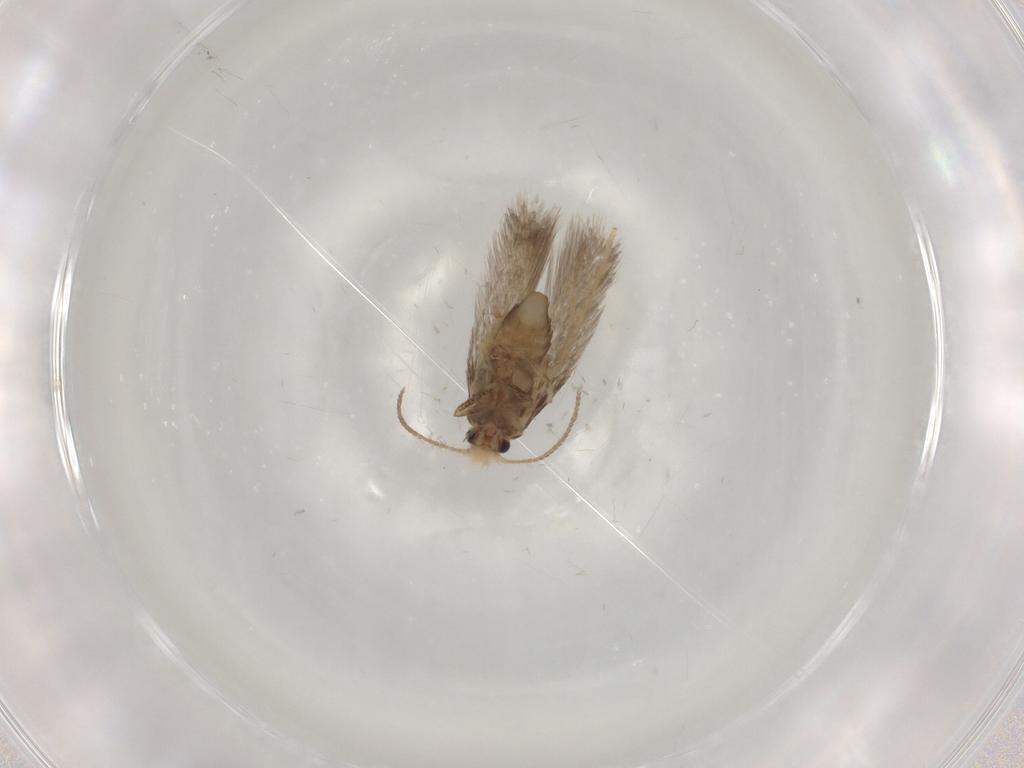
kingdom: Animalia
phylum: Arthropoda
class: Insecta
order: Lepidoptera
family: Nepticulidae
